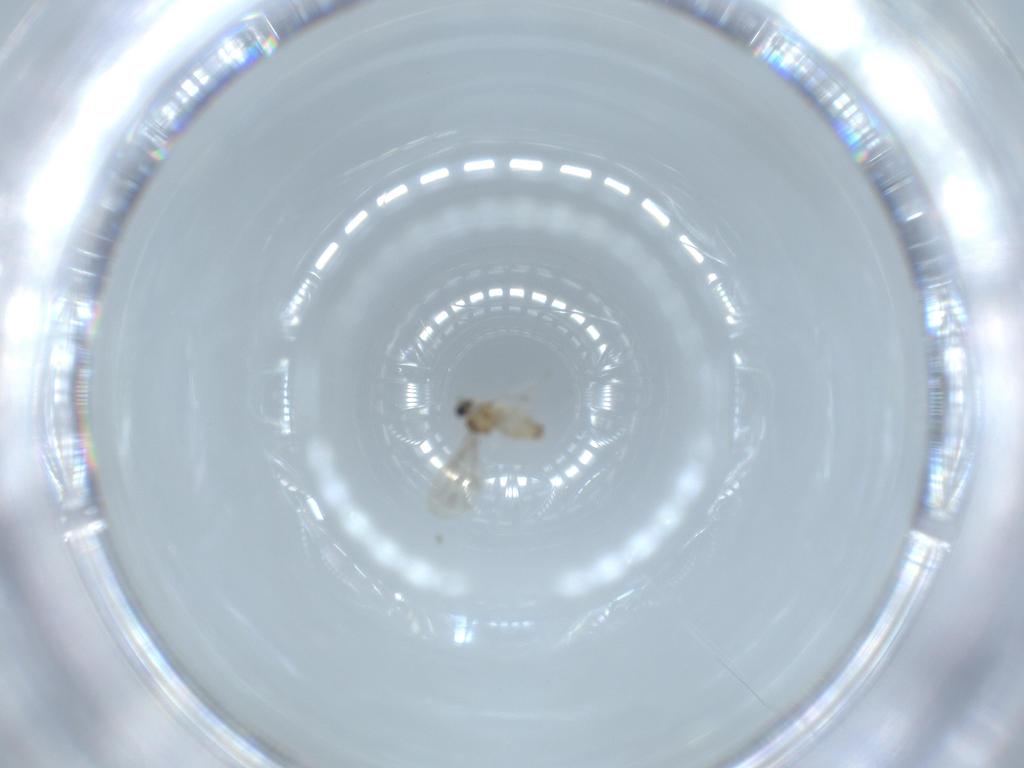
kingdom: Animalia
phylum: Arthropoda
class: Insecta
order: Diptera
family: Cecidomyiidae
